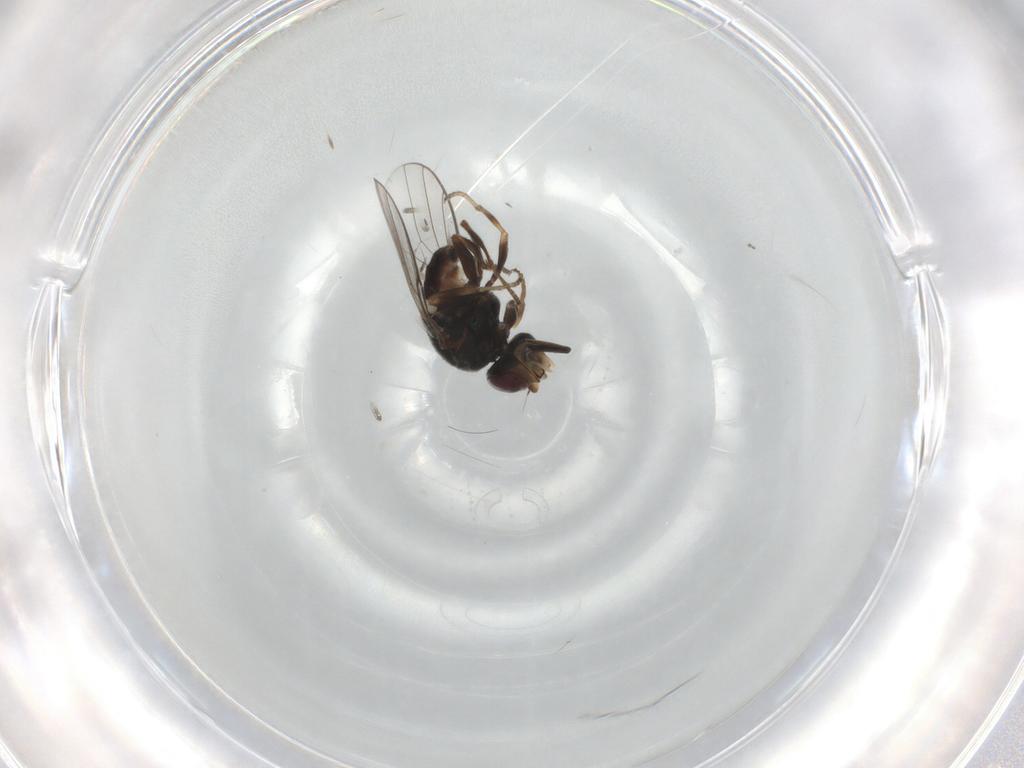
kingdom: Animalia
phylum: Arthropoda
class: Insecta
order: Diptera
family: Chloropidae
